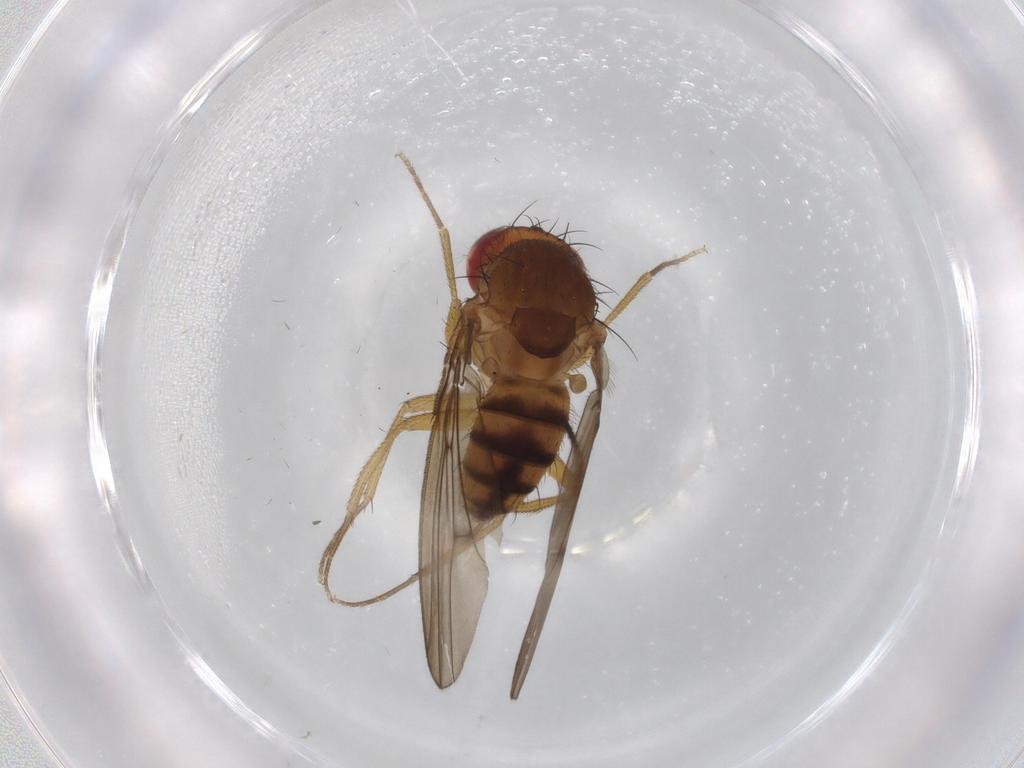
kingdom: Animalia
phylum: Arthropoda
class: Insecta
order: Diptera
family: Drosophilidae
